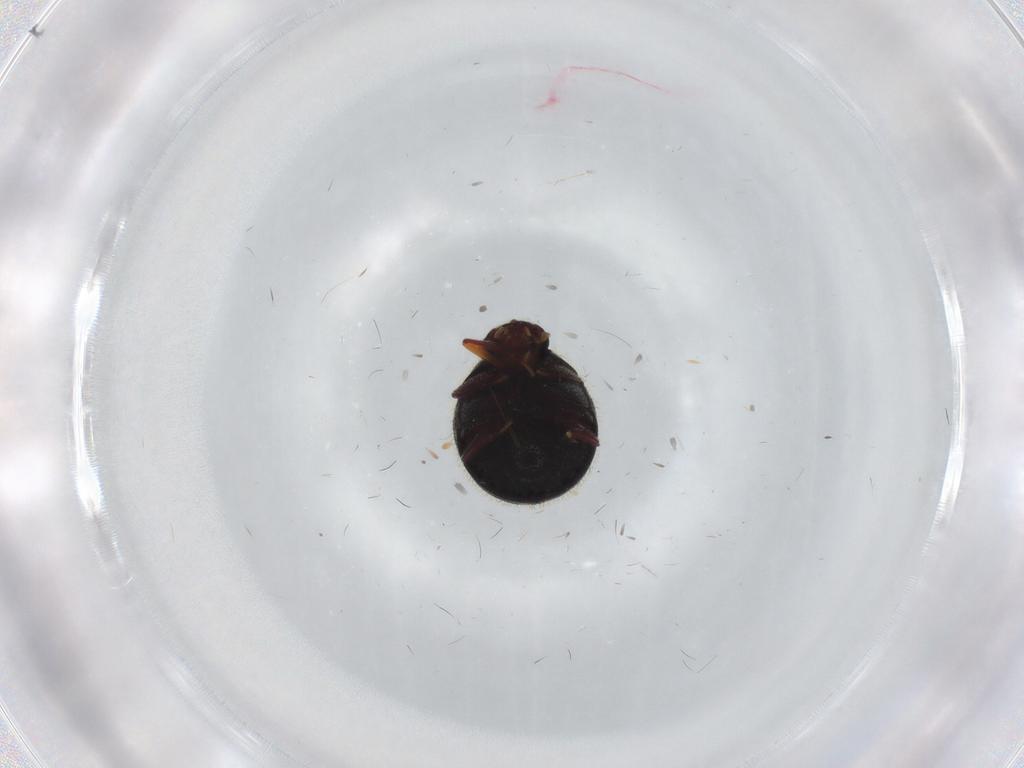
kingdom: Animalia
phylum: Arthropoda
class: Insecta
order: Coleoptera
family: Ptinidae
